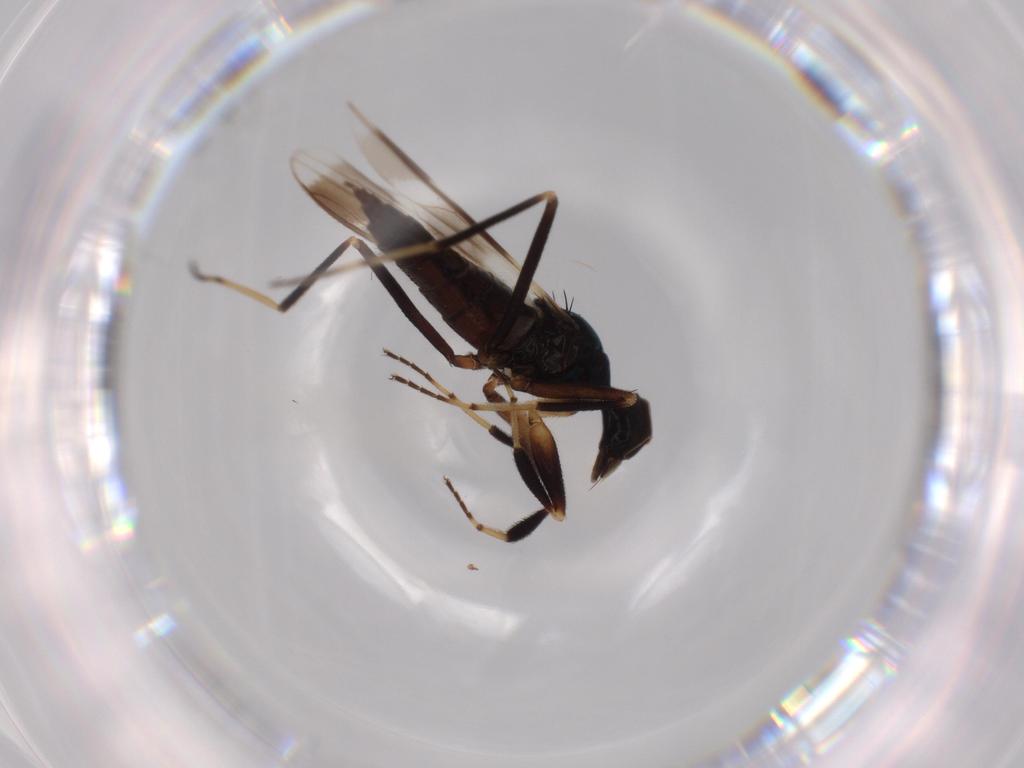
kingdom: Animalia
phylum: Arthropoda
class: Insecta
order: Diptera
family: Hybotidae
